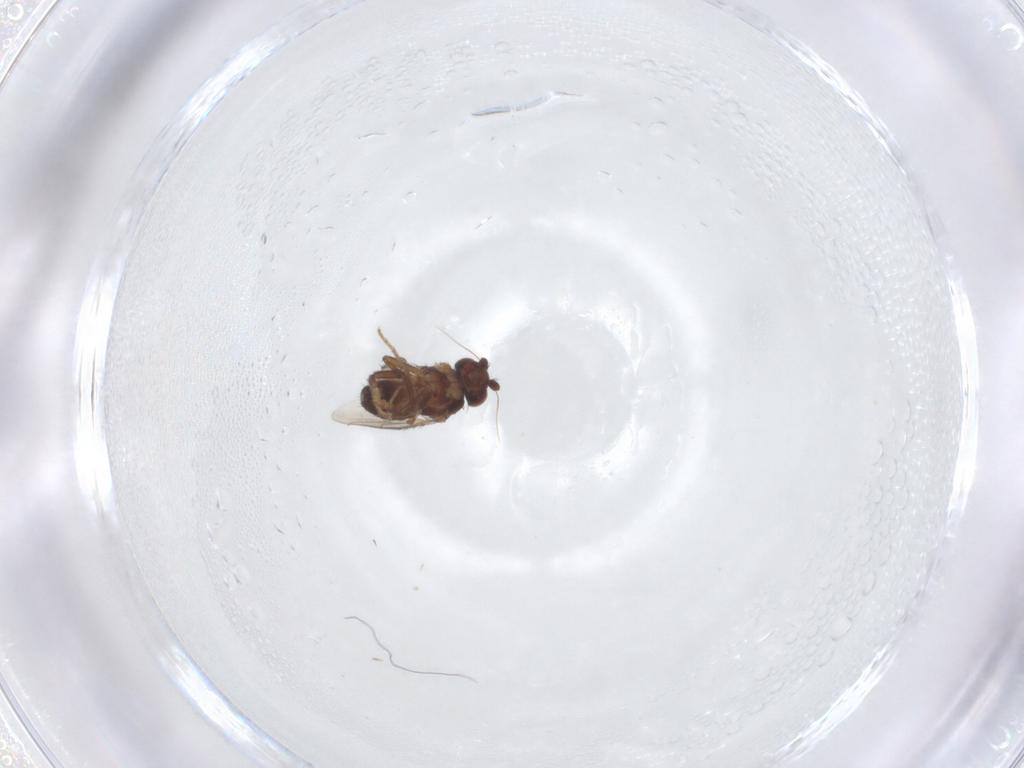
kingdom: Animalia
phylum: Arthropoda
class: Insecta
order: Diptera
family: Sphaeroceridae
